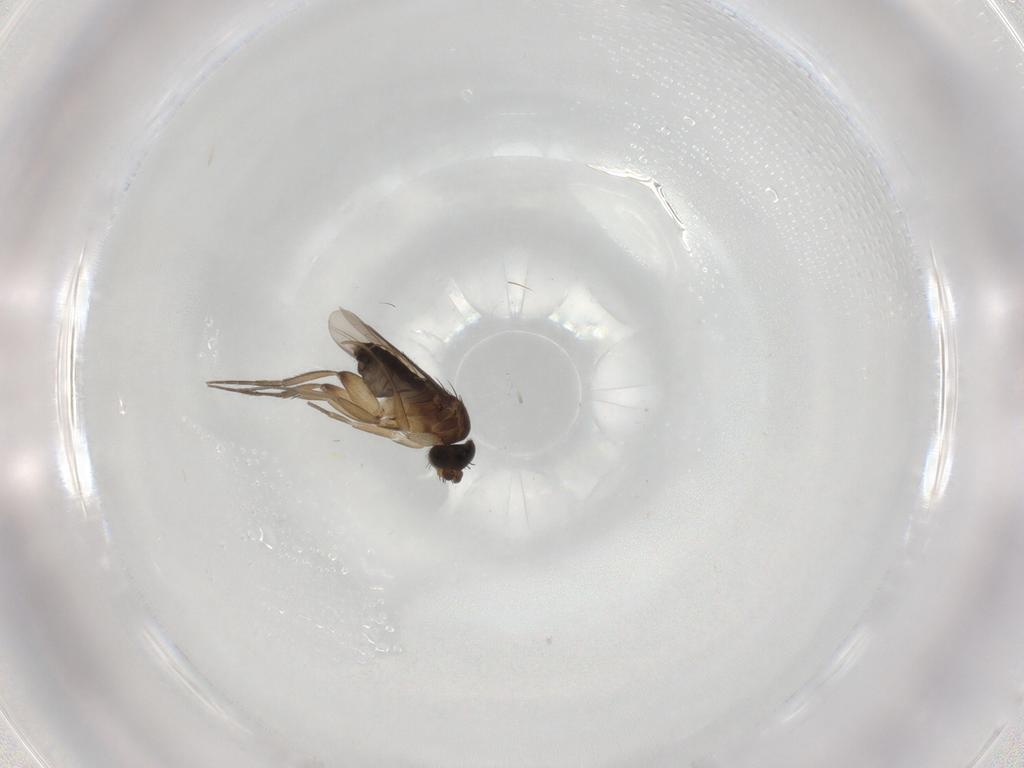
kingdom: Animalia
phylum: Arthropoda
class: Insecta
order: Diptera
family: Phoridae
